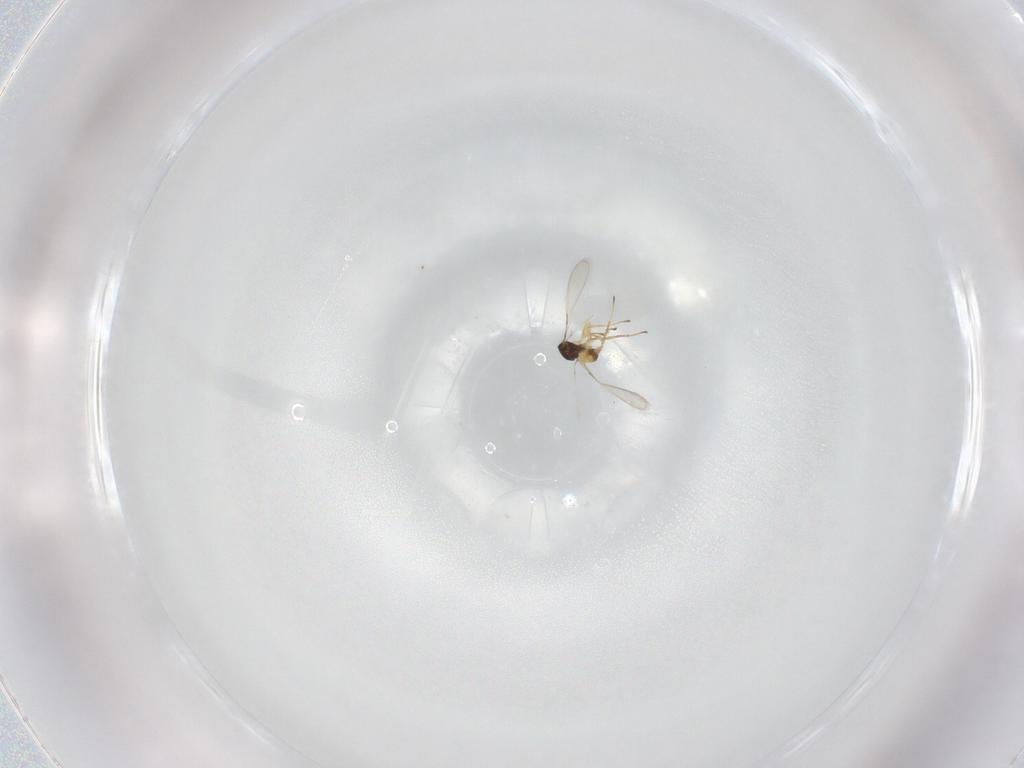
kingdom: Animalia
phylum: Arthropoda
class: Insecta
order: Hymenoptera
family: Mymaridae
